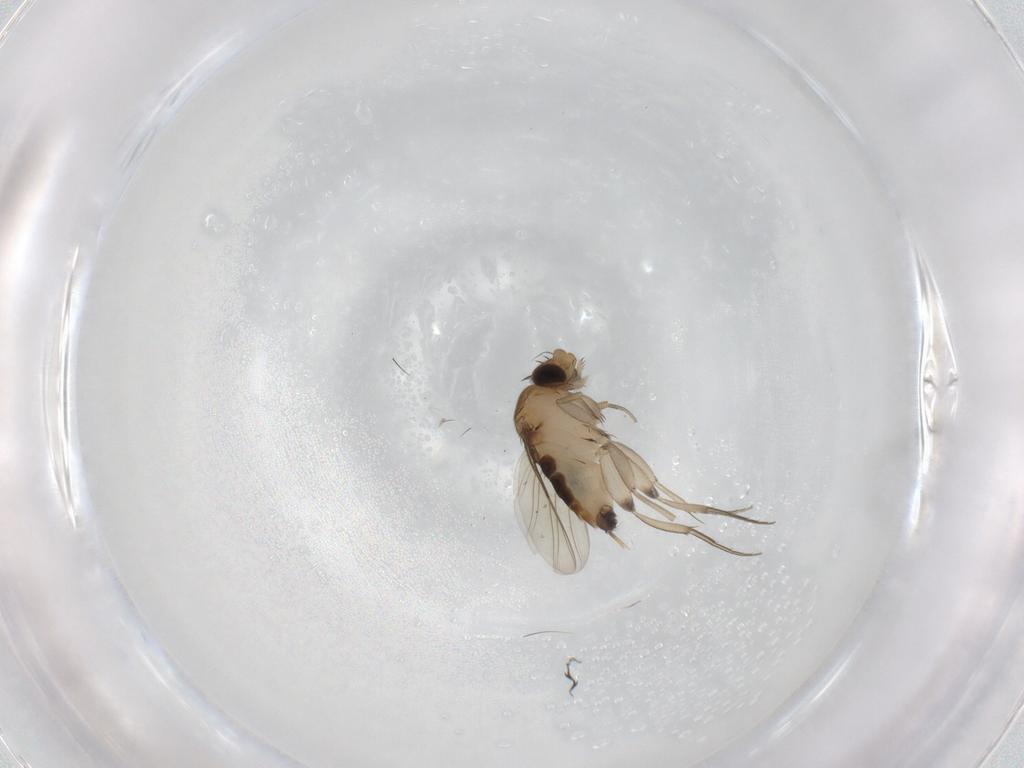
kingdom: Animalia
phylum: Arthropoda
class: Insecta
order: Diptera
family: Phoridae
